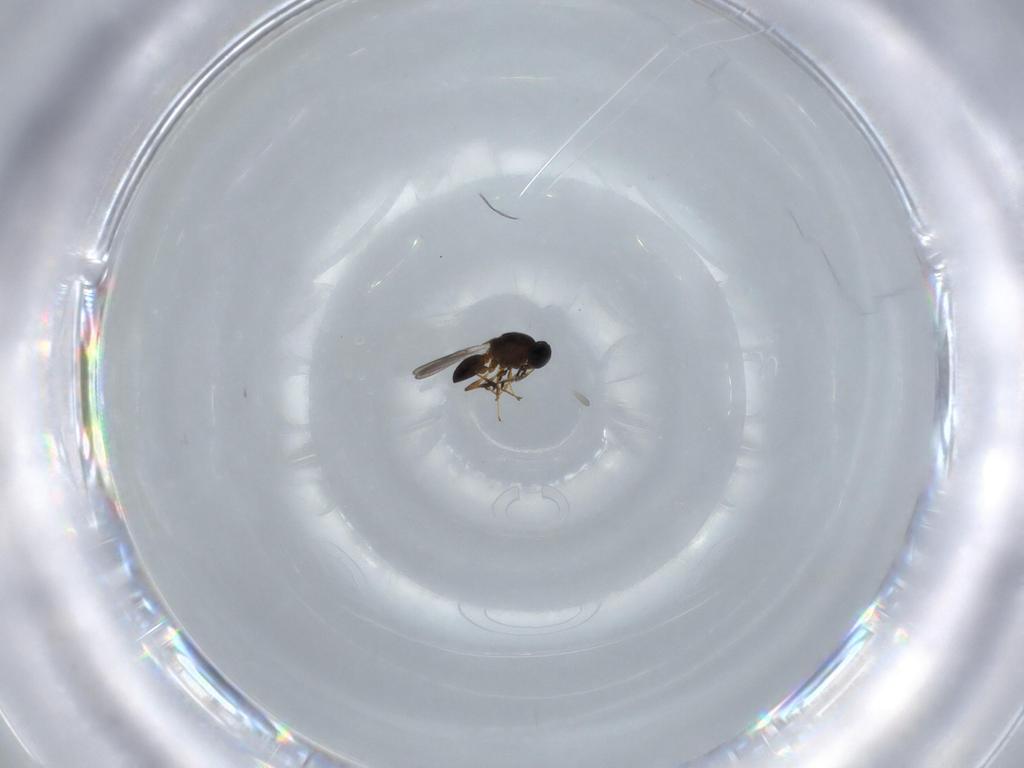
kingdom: Animalia
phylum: Arthropoda
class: Insecta
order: Hymenoptera
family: Platygastridae
